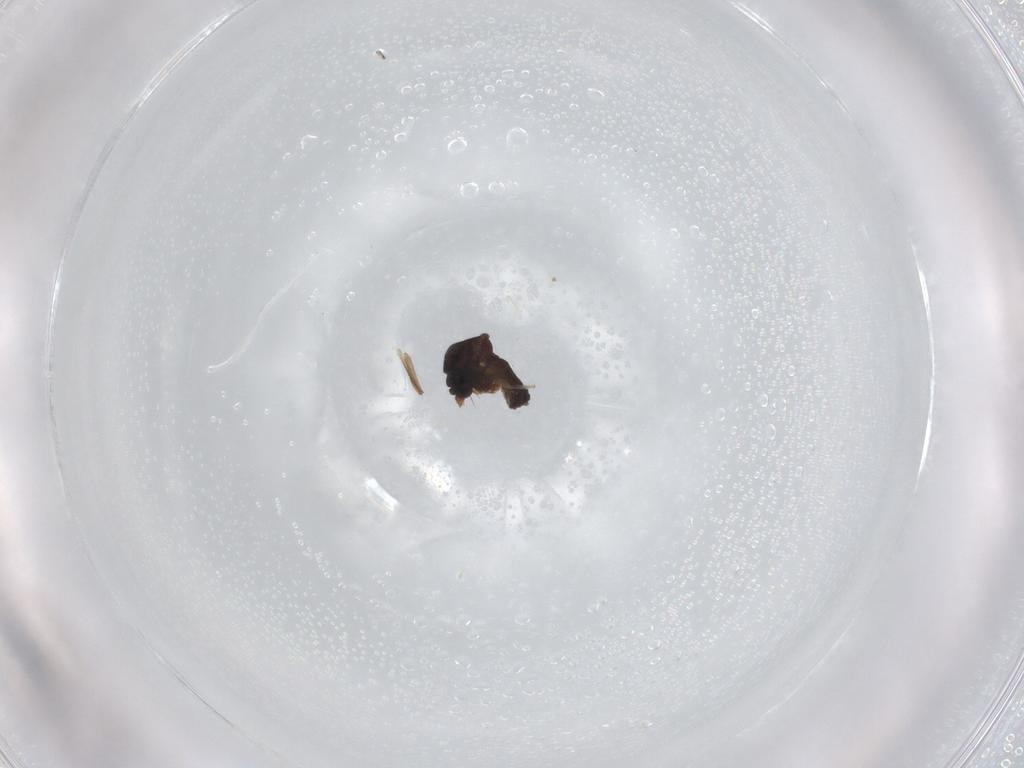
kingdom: Animalia
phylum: Arthropoda
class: Insecta
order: Diptera
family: Ceratopogonidae
